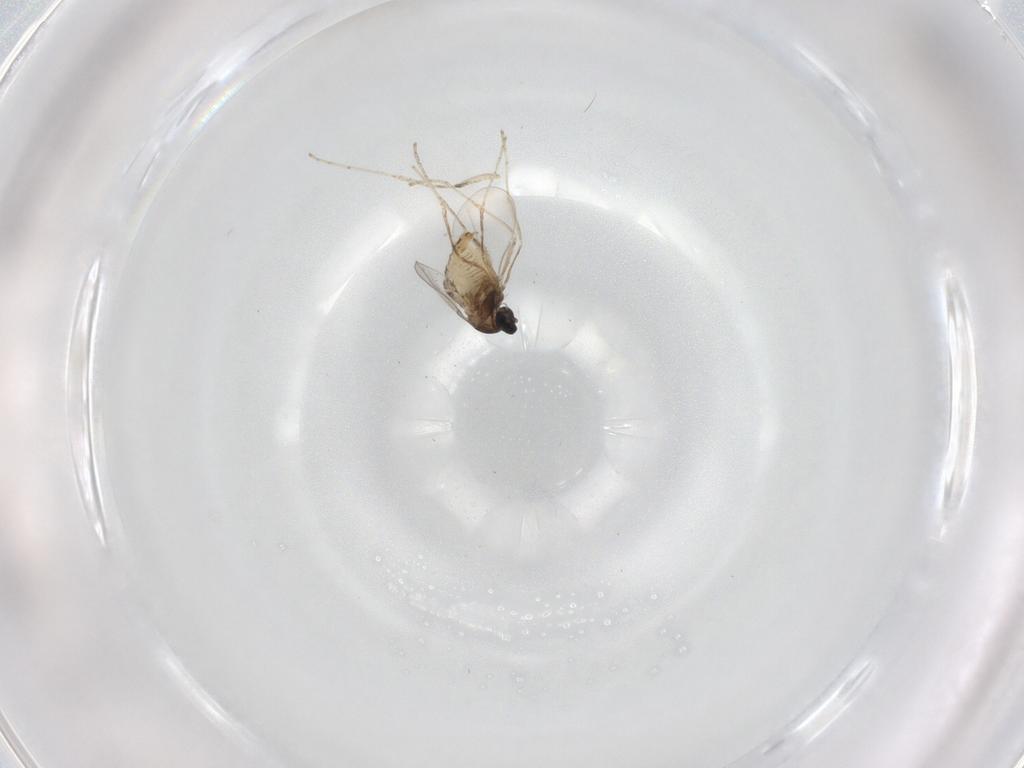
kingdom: Animalia
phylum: Arthropoda
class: Insecta
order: Diptera
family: Cecidomyiidae
